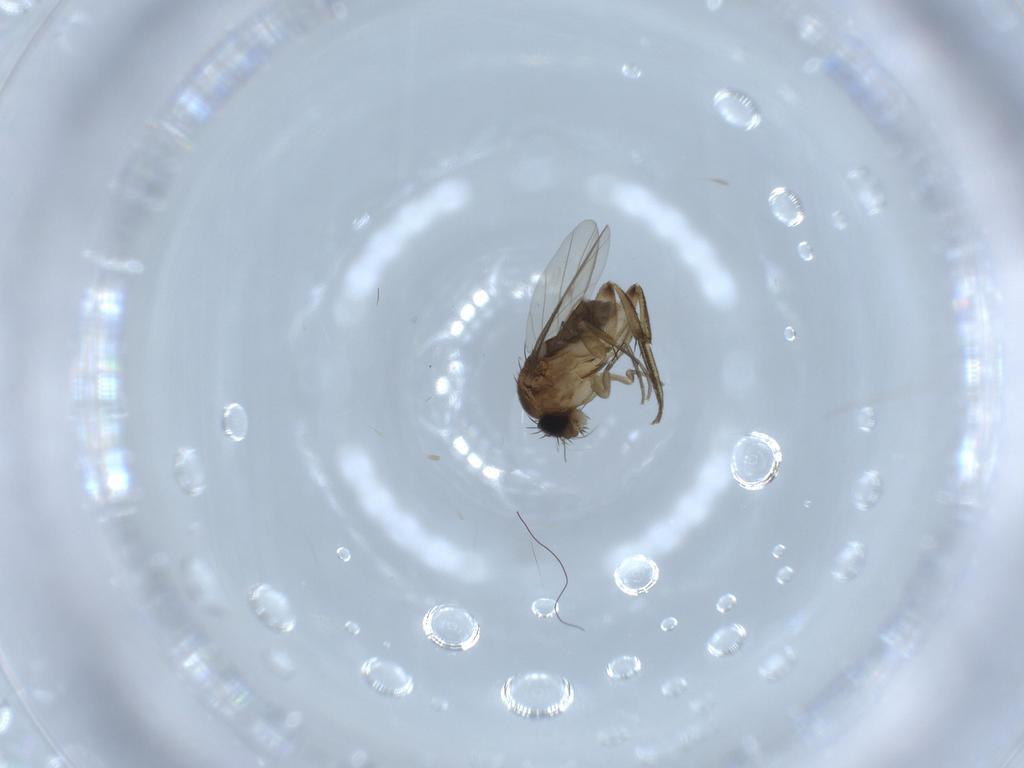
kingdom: Animalia
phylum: Arthropoda
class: Insecta
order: Diptera
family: Phoridae
